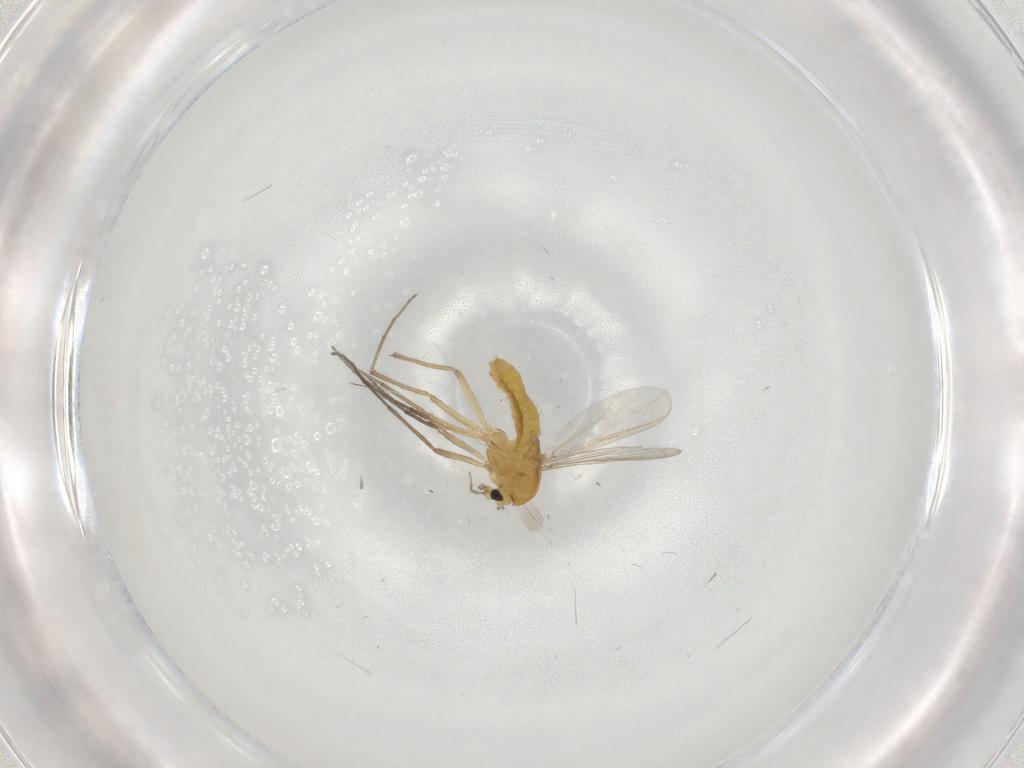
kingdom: Animalia
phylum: Arthropoda
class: Insecta
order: Diptera
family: Chironomidae
